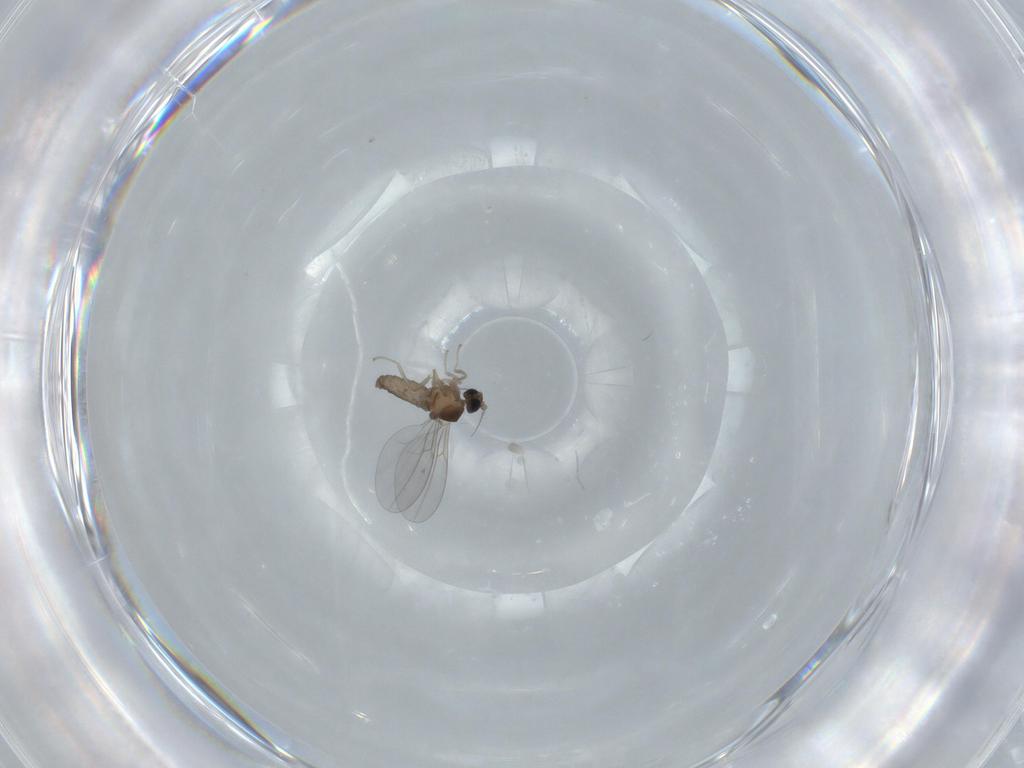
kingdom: Animalia
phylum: Arthropoda
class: Insecta
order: Diptera
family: Cecidomyiidae
